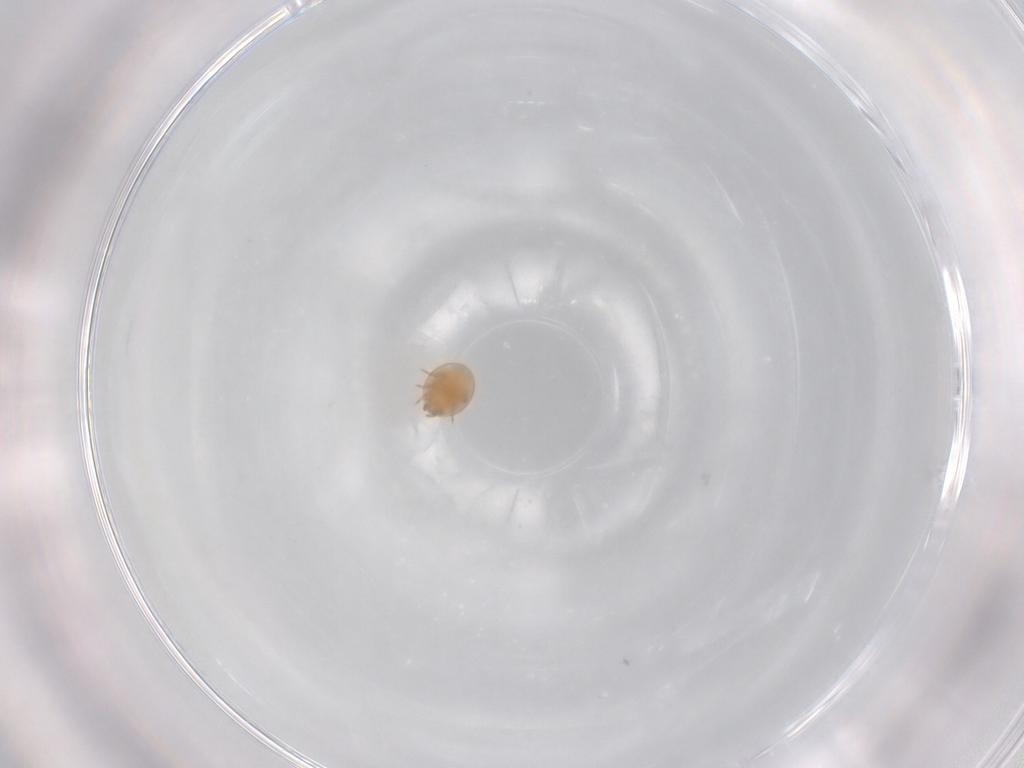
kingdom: Animalia
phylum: Arthropoda
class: Arachnida
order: Mesostigmata
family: Trematuridae
